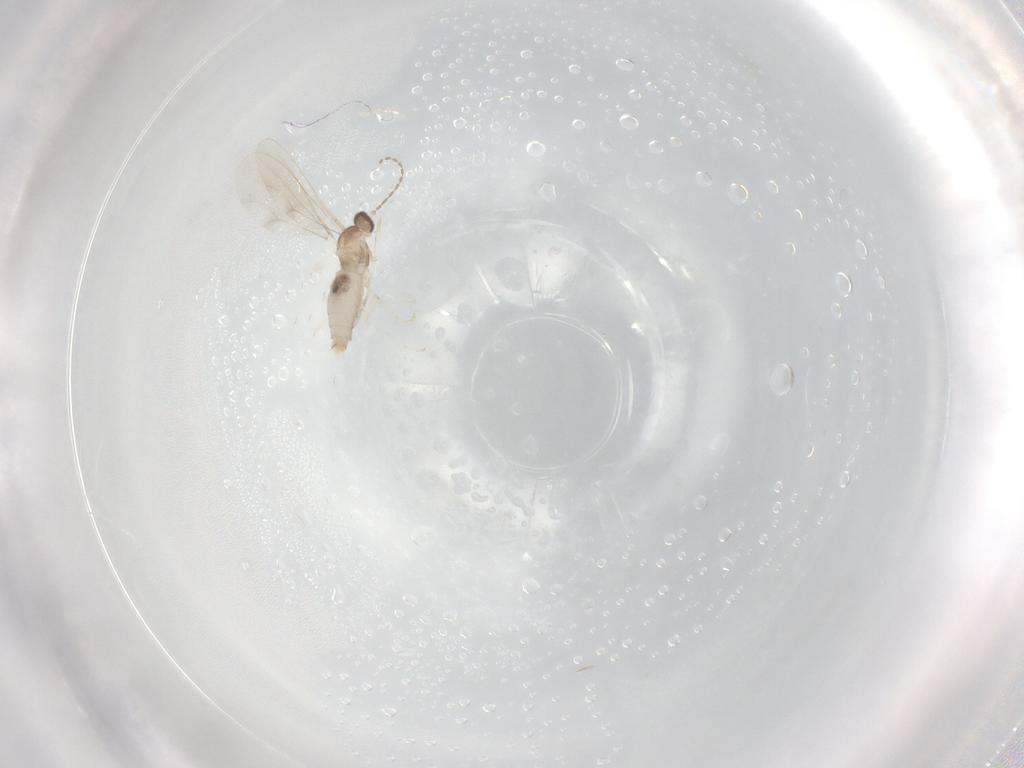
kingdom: Animalia
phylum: Arthropoda
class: Insecta
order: Diptera
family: Cecidomyiidae
